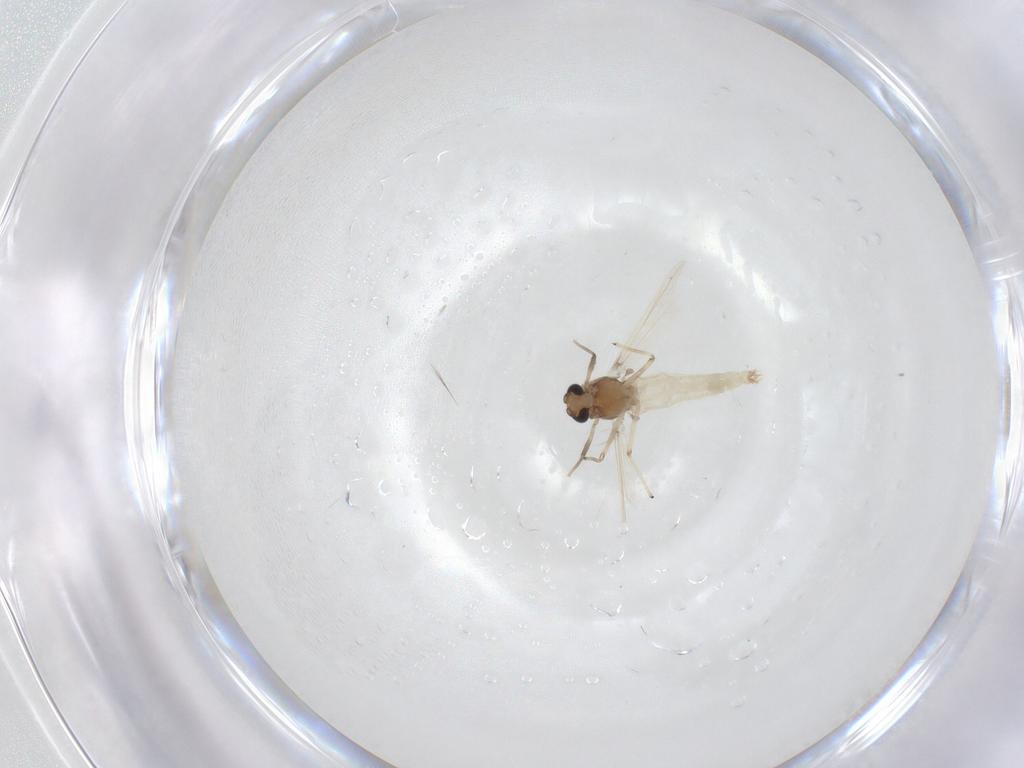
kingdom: Animalia
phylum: Arthropoda
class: Insecta
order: Diptera
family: Chironomidae
